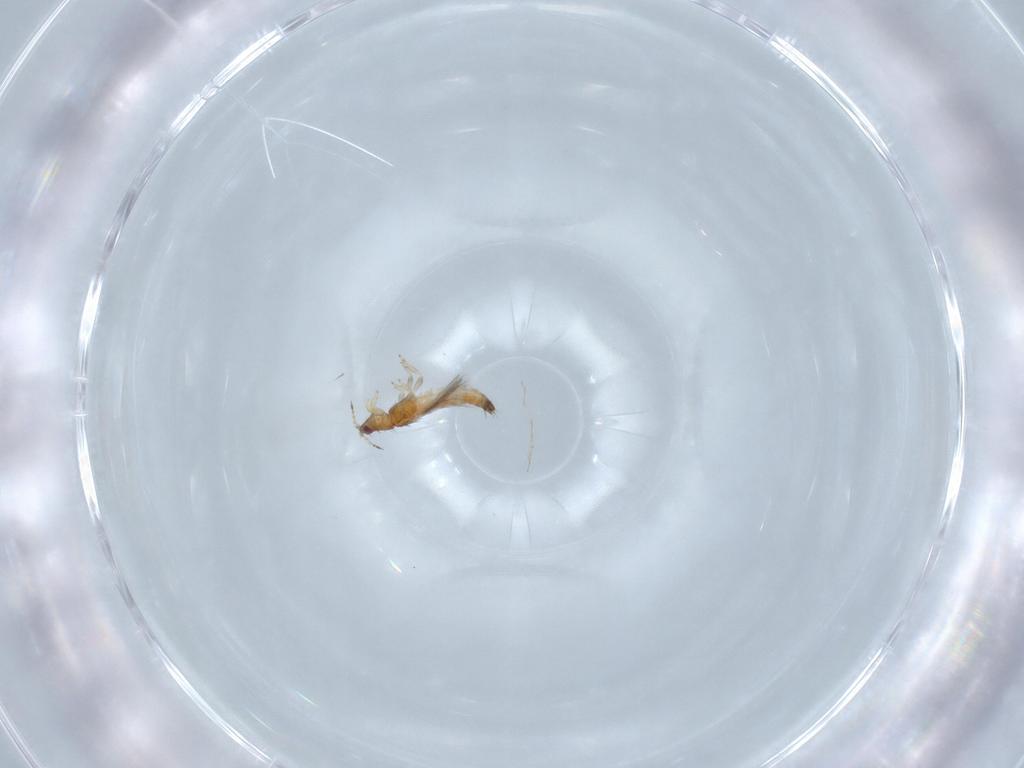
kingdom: Animalia
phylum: Arthropoda
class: Insecta
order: Thysanoptera
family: Thripidae
